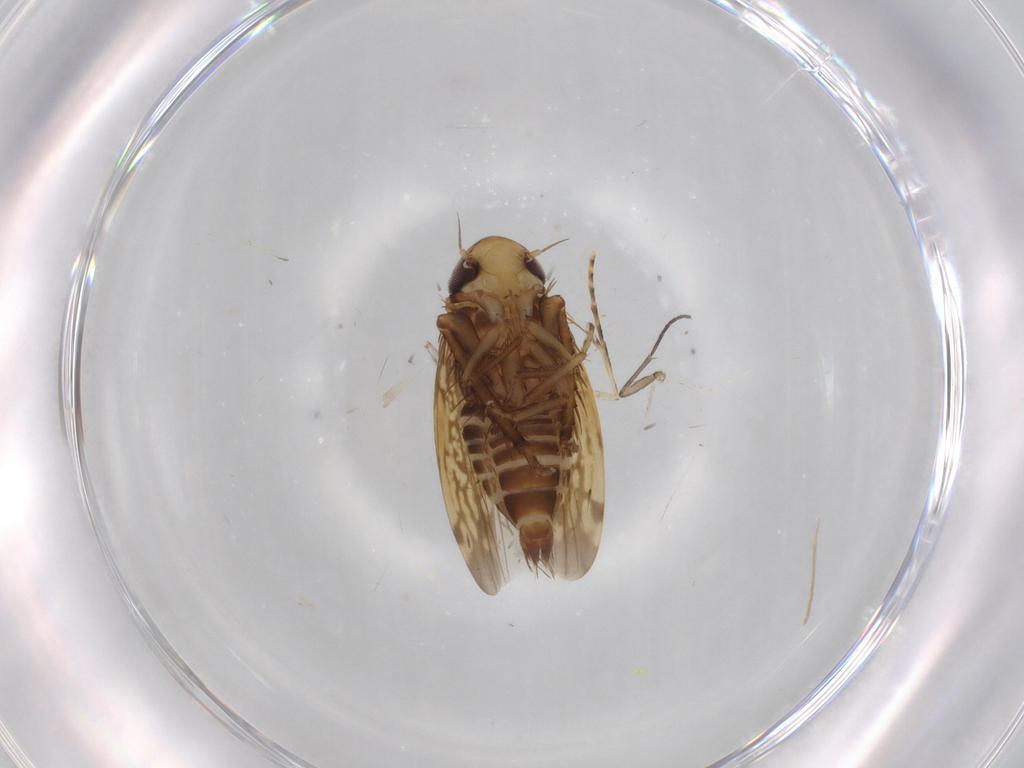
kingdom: Animalia
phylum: Arthropoda
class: Insecta
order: Hemiptera
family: Cicadellidae
